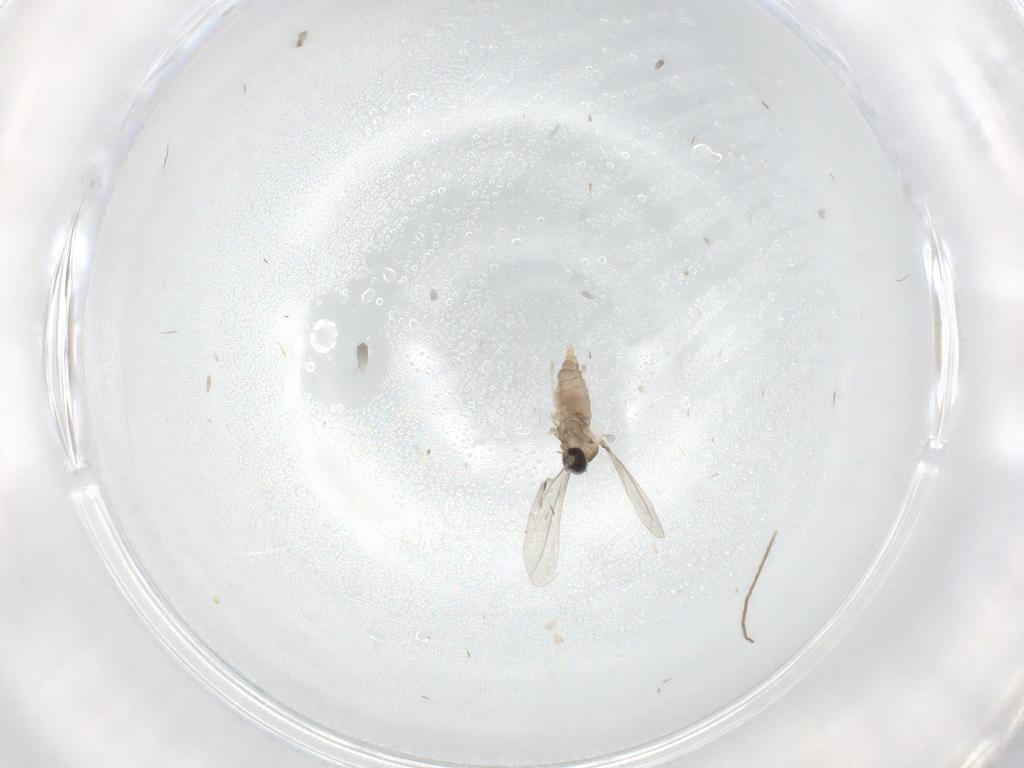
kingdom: Animalia
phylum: Arthropoda
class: Insecta
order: Diptera
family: Cecidomyiidae
